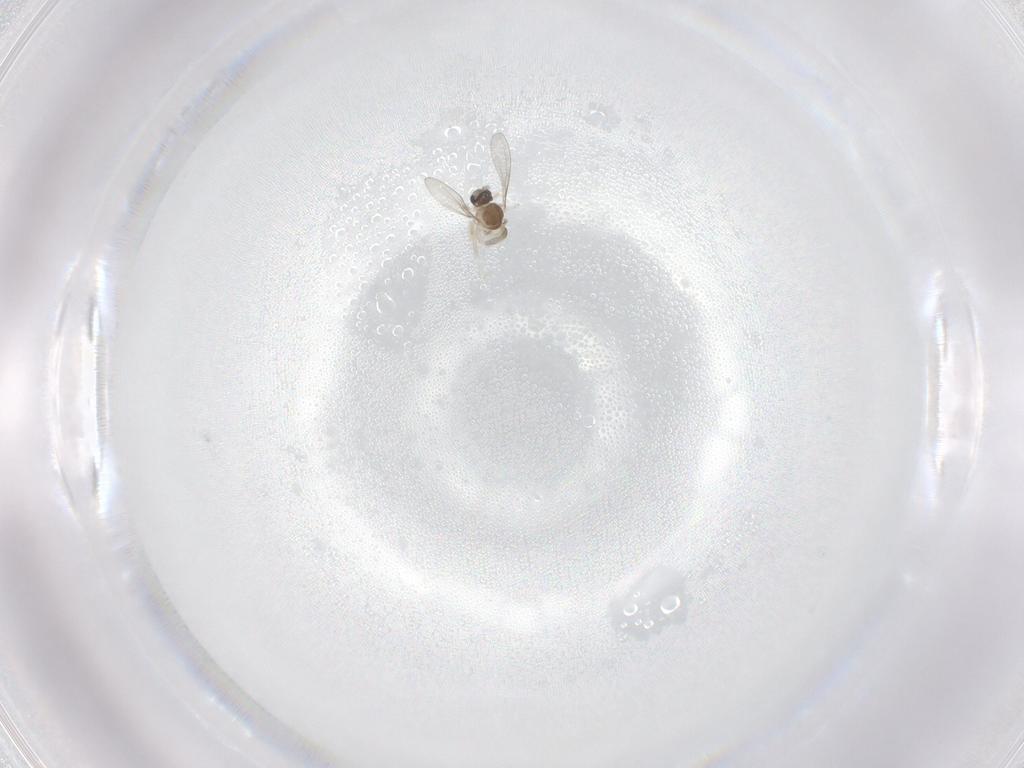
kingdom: Animalia
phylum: Arthropoda
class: Insecta
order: Diptera
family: Cecidomyiidae
